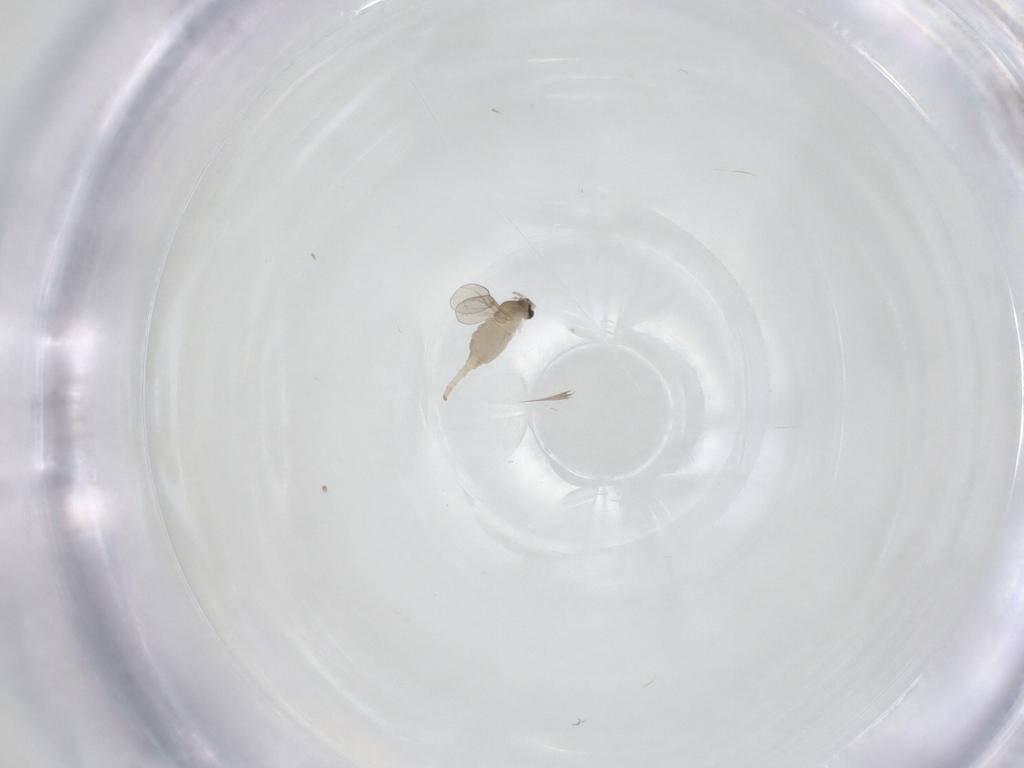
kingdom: Animalia
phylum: Arthropoda
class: Insecta
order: Diptera
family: Cecidomyiidae
